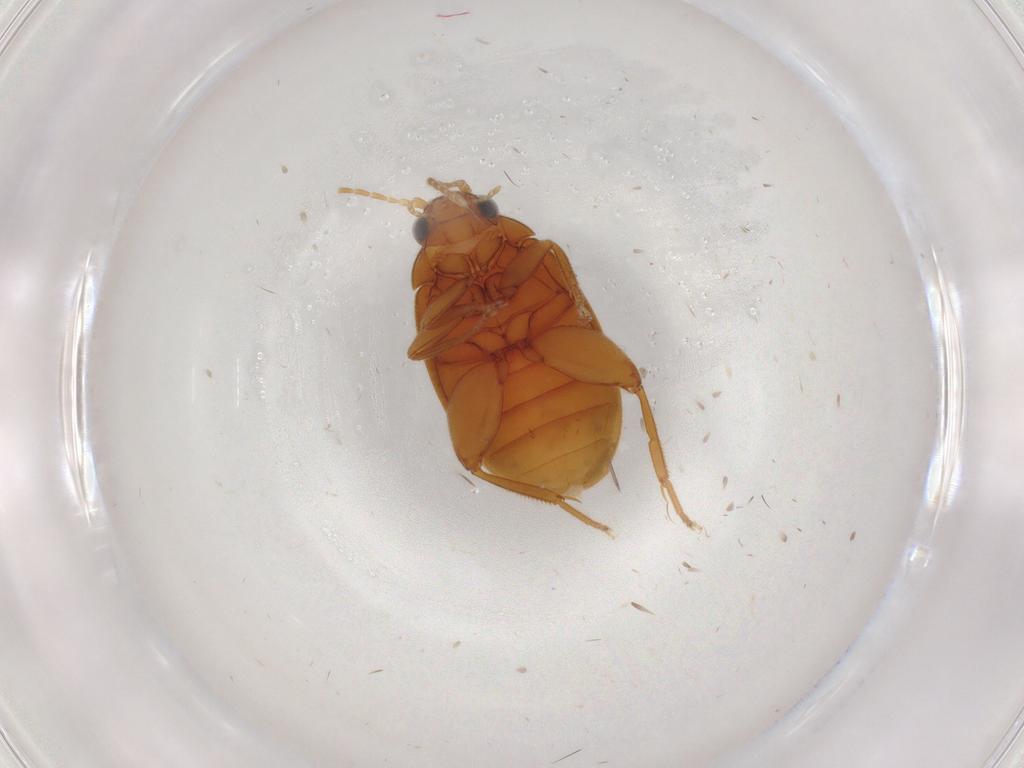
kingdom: Animalia
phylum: Arthropoda
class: Insecta
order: Coleoptera
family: Scirtidae
